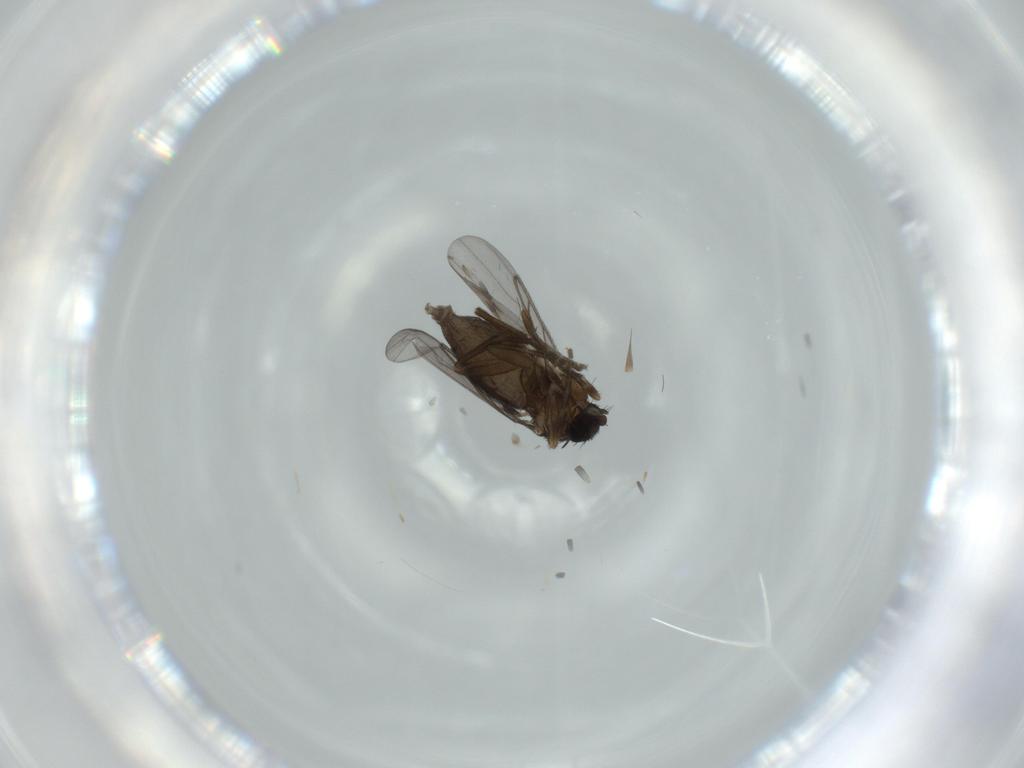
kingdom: Animalia
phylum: Arthropoda
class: Insecta
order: Diptera
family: Phoridae
